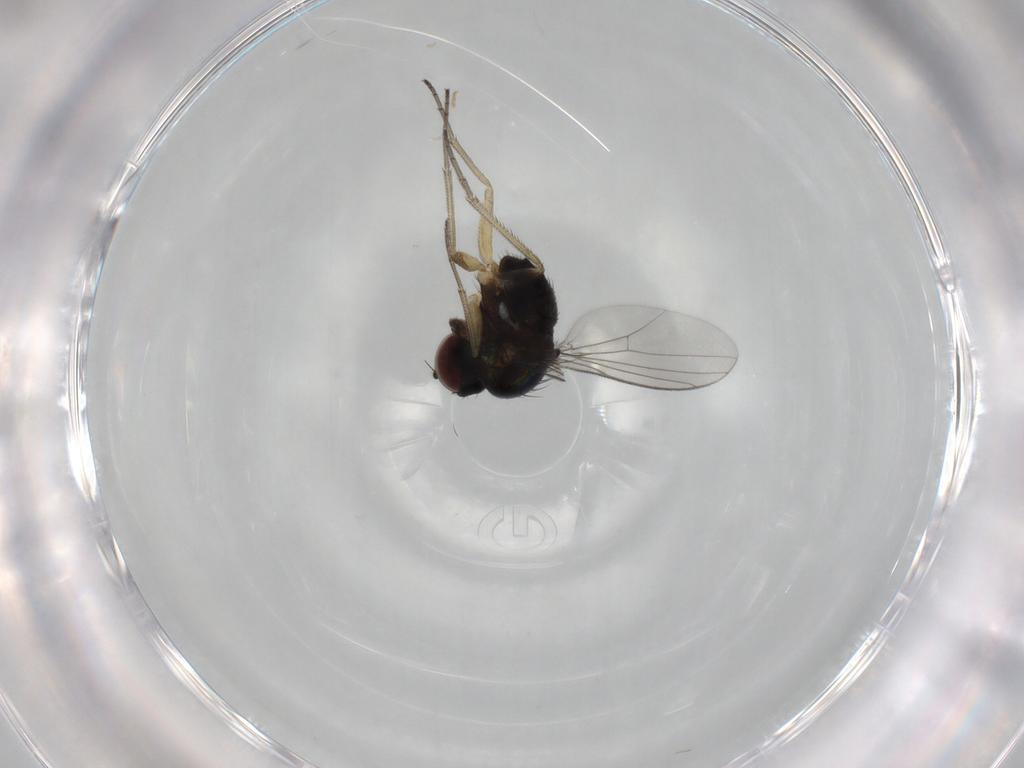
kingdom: Animalia
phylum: Arthropoda
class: Insecta
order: Diptera
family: Dolichopodidae
